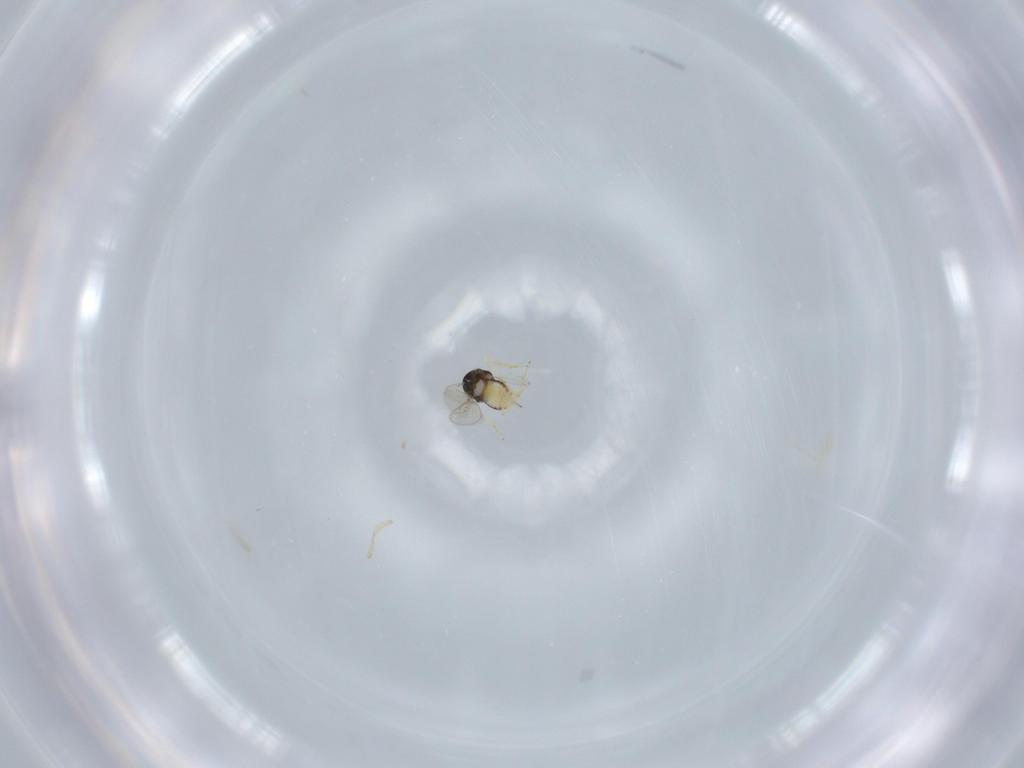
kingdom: Animalia
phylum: Arthropoda
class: Insecta
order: Hymenoptera
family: Aphelinidae
